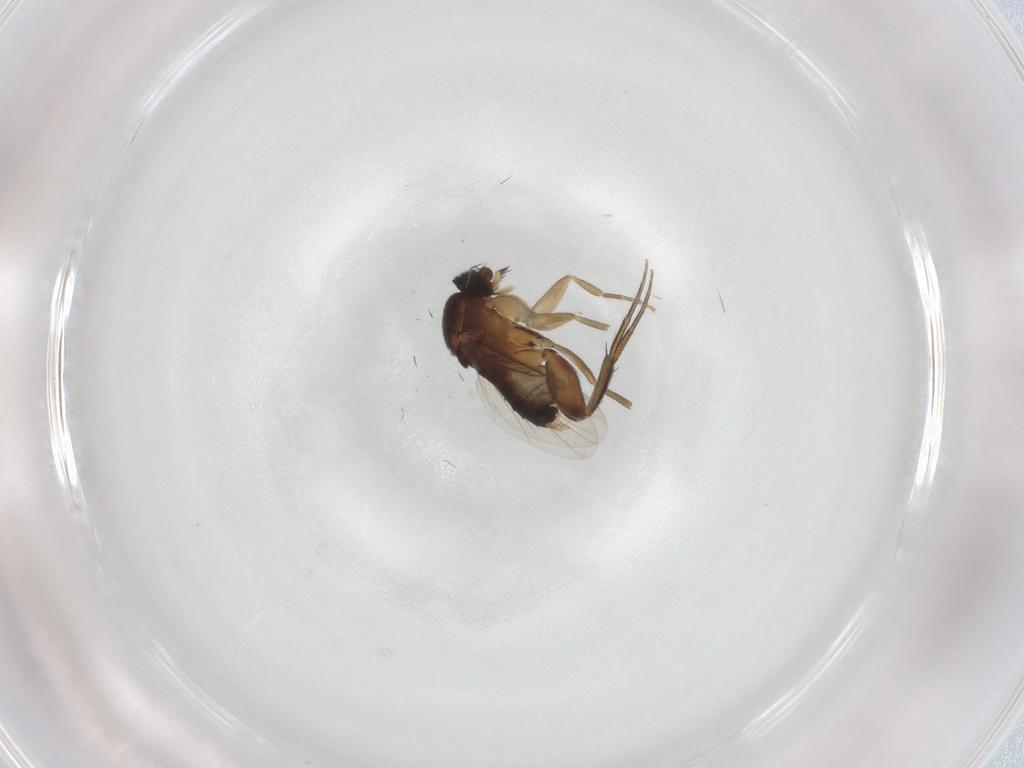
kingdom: Animalia
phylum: Arthropoda
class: Insecta
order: Diptera
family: Phoridae
